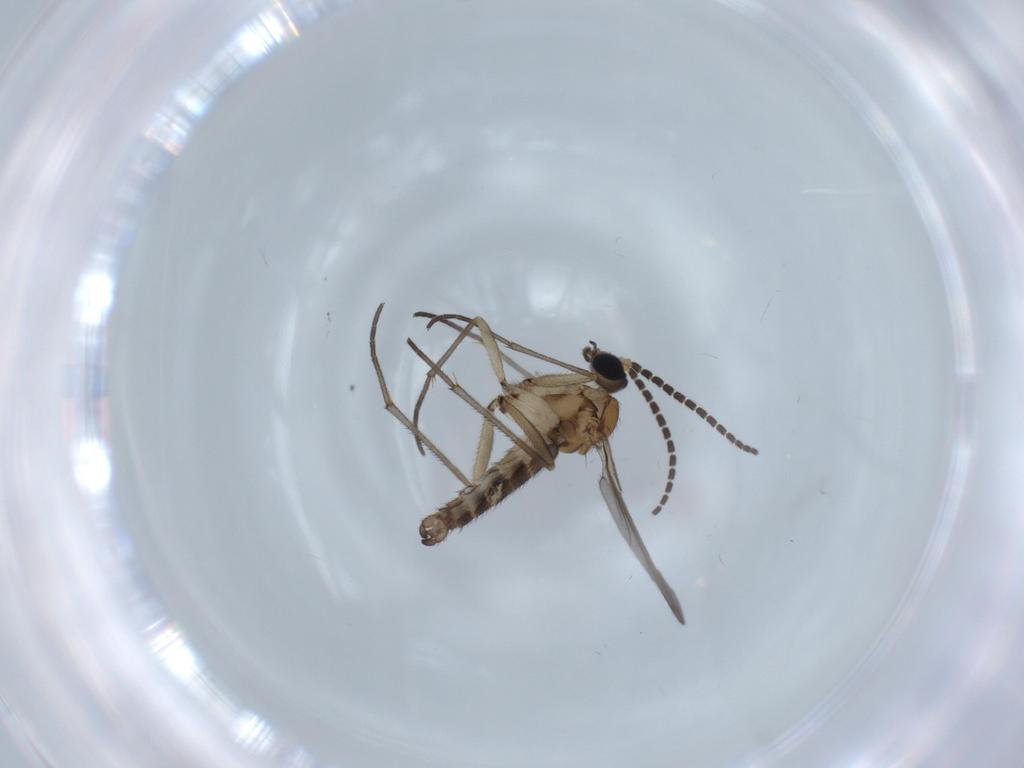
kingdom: Animalia
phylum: Arthropoda
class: Insecta
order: Diptera
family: Sciaridae
